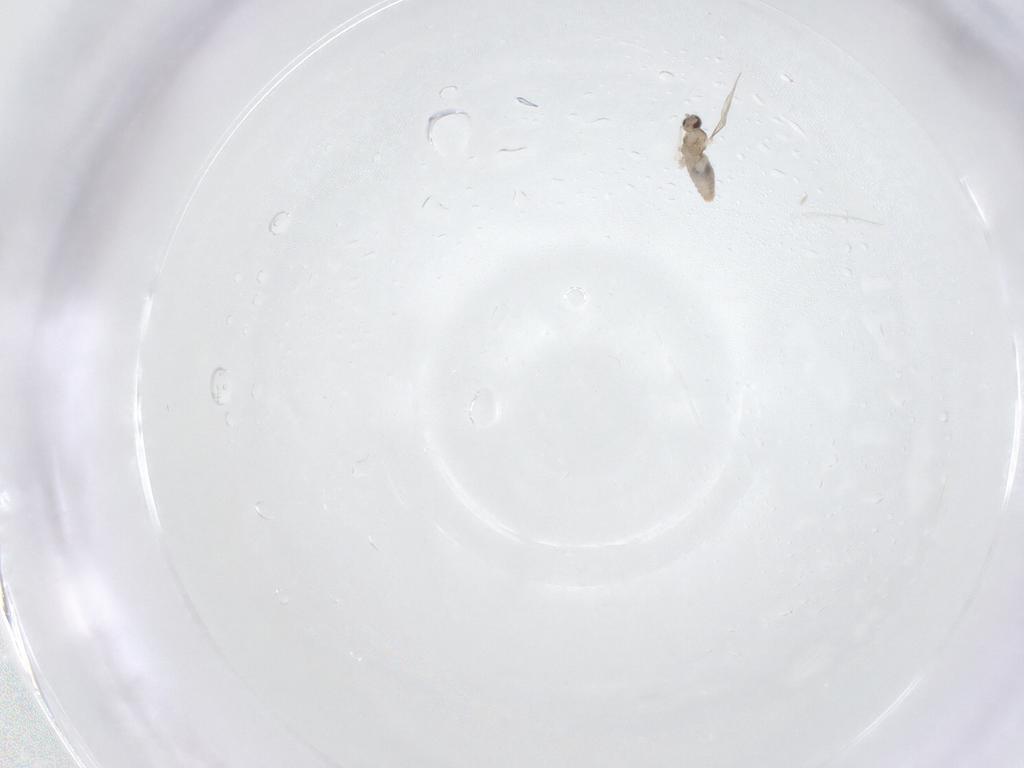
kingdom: Animalia
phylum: Arthropoda
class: Insecta
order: Diptera
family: Cecidomyiidae
